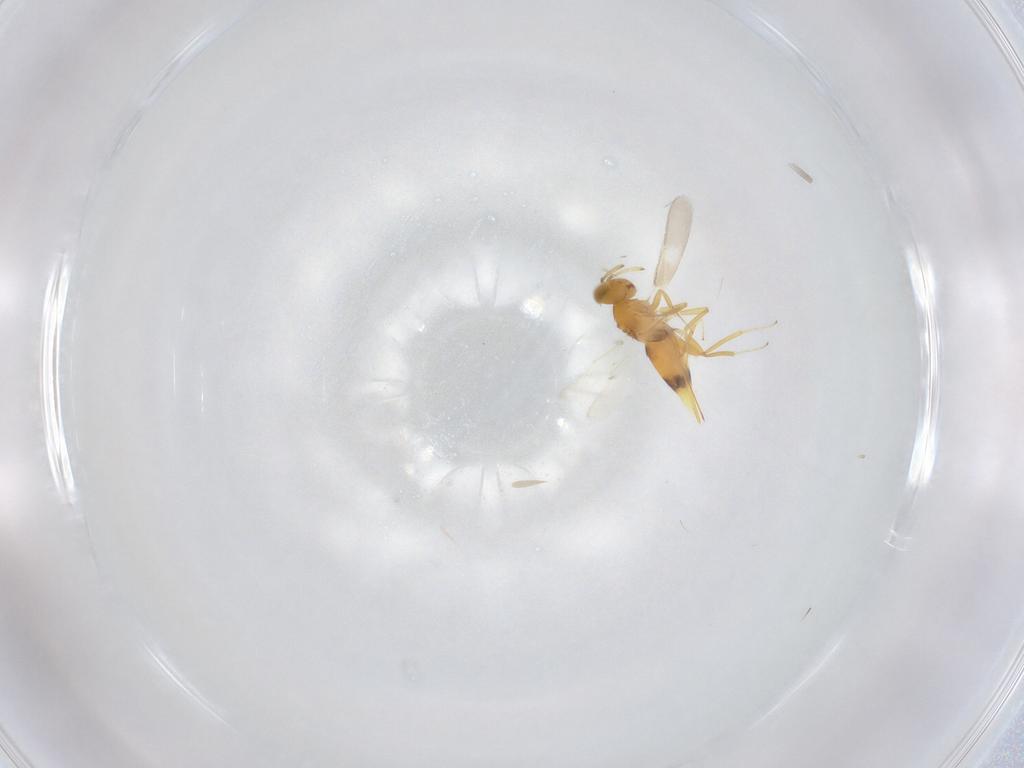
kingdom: Animalia
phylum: Arthropoda
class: Insecta
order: Hymenoptera
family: Aphelinidae
